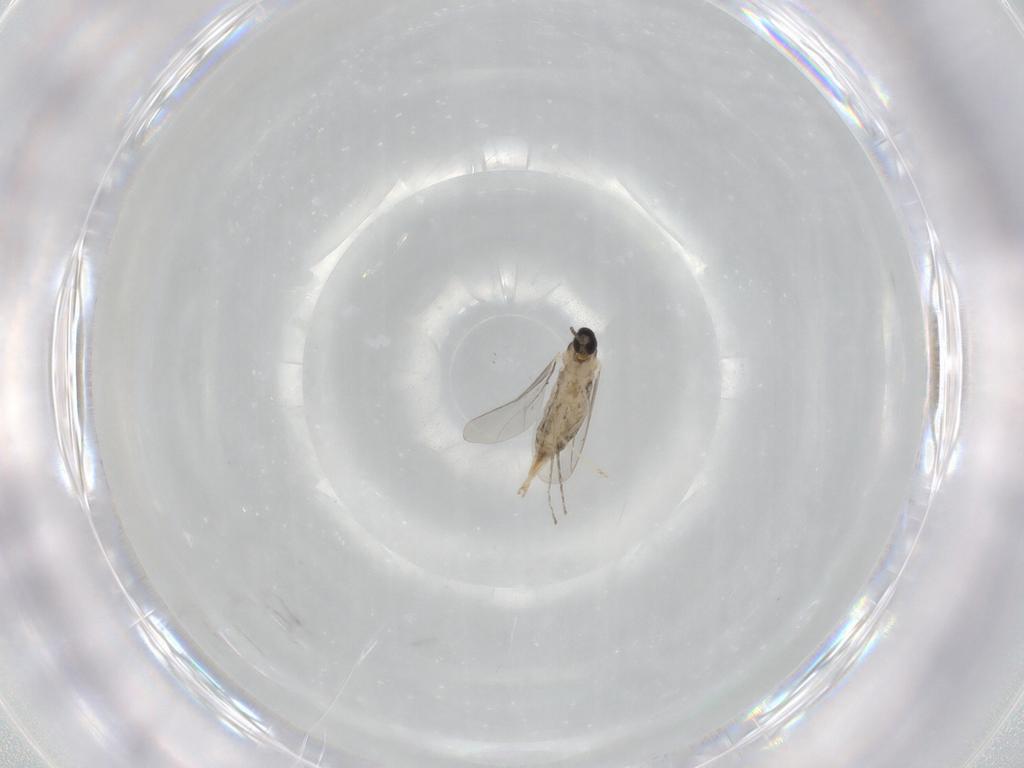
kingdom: Animalia
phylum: Arthropoda
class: Insecta
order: Diptera
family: Cecidomyiidae
